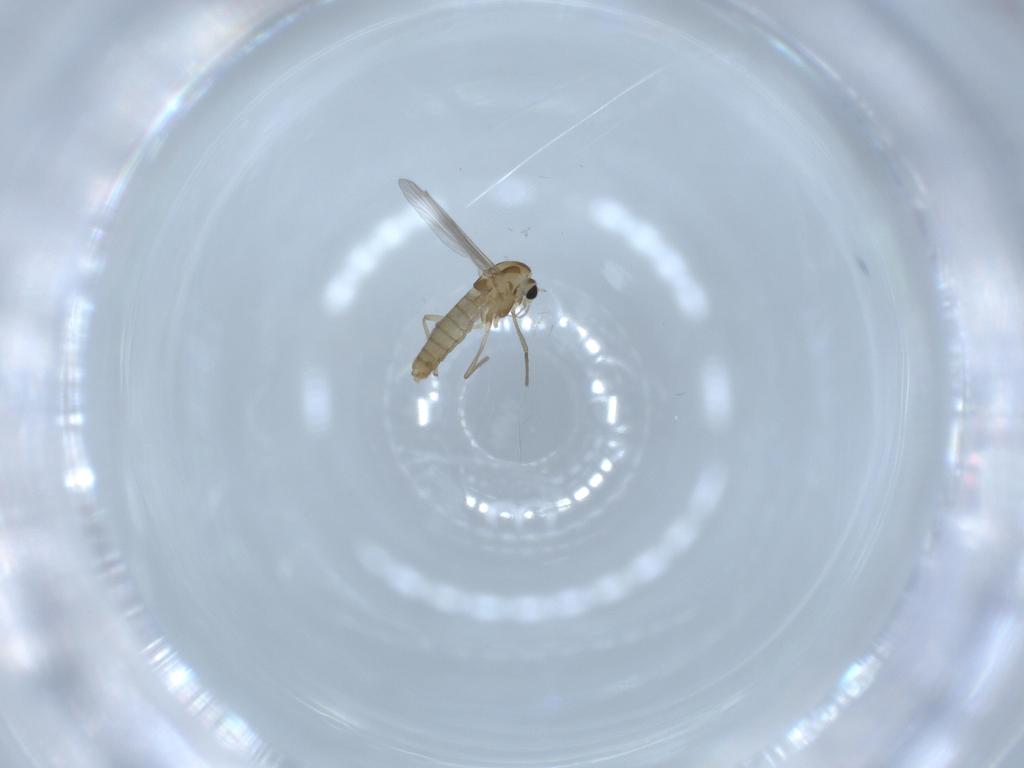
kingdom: Animalia
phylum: Arthropoda
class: Insecta
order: Diptera
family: Chironomidae
